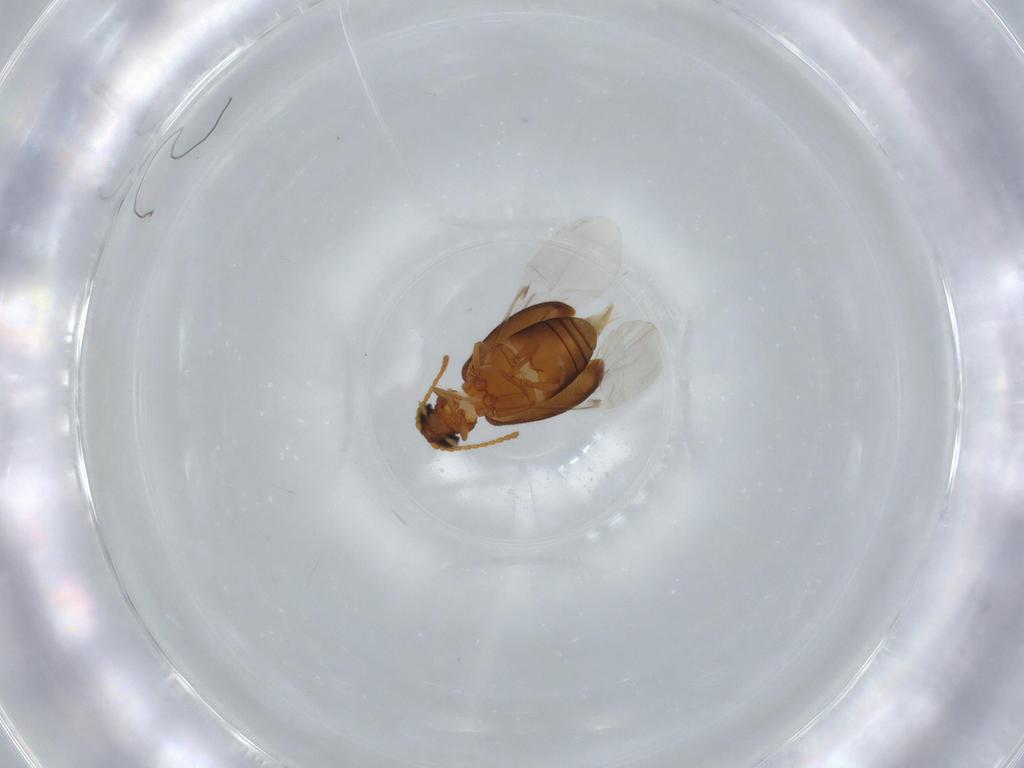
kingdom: Animalia
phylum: Arthropoda
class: Insecta
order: Coleoptera
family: Aderidae
